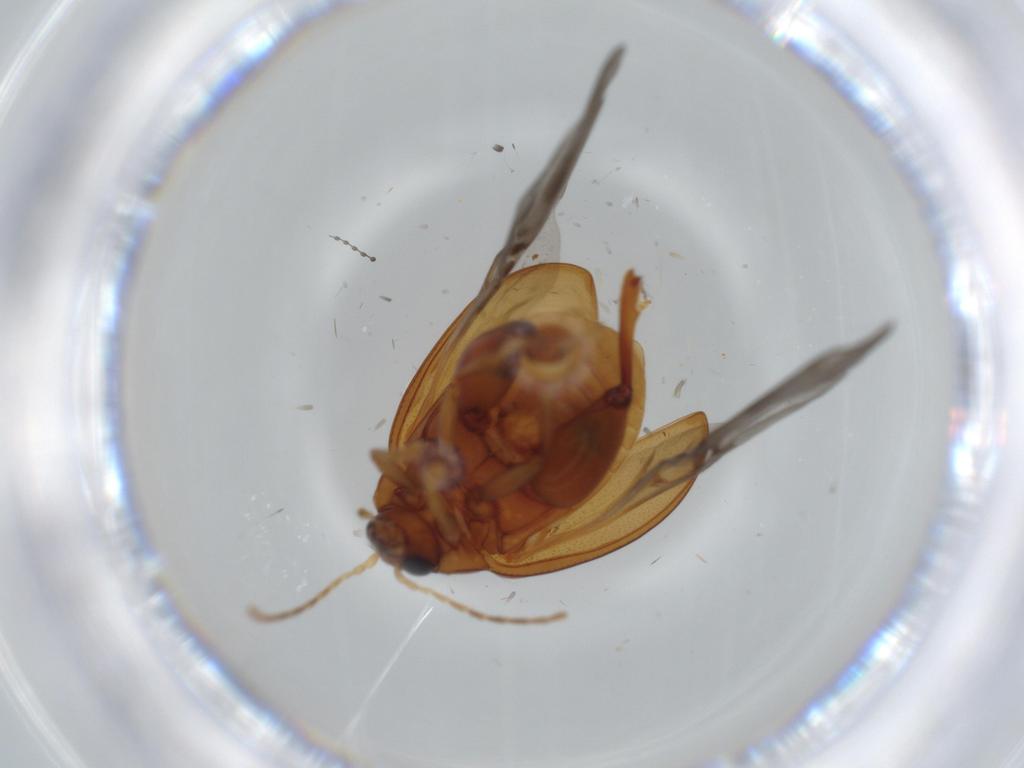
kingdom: Animalia
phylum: Arthropoda
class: Insecta
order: Coleoptera
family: Chrysomelidae
